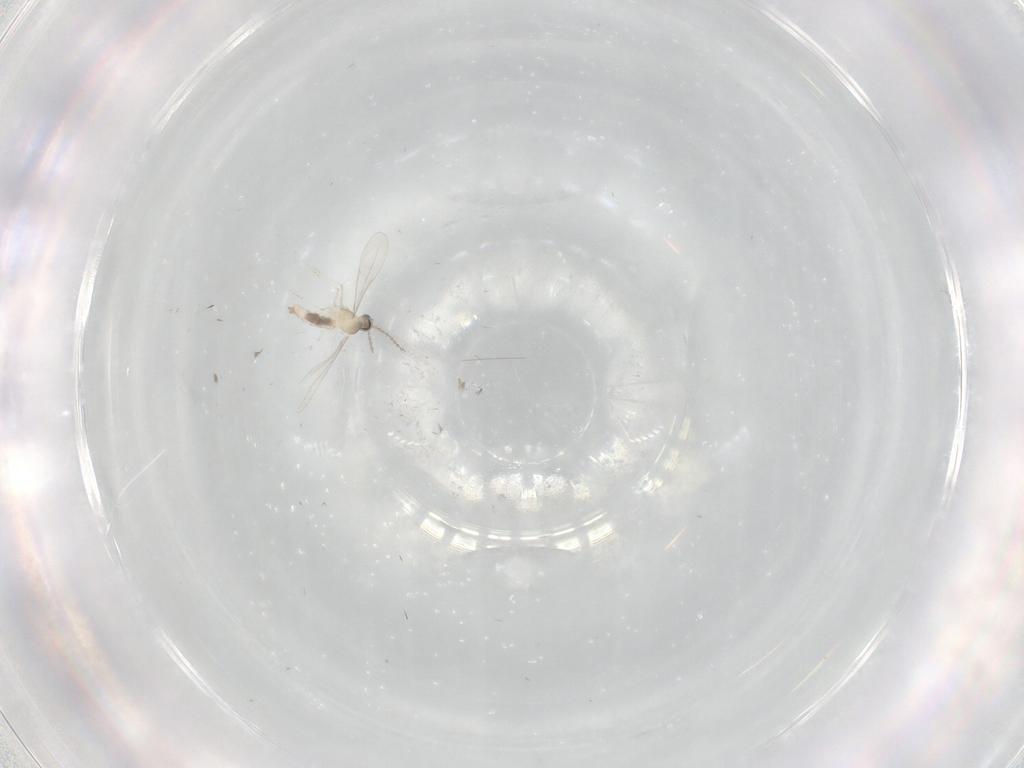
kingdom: Animalia
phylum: Arthropoda
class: Insecta
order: Diptera
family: Cecidomyiidae
